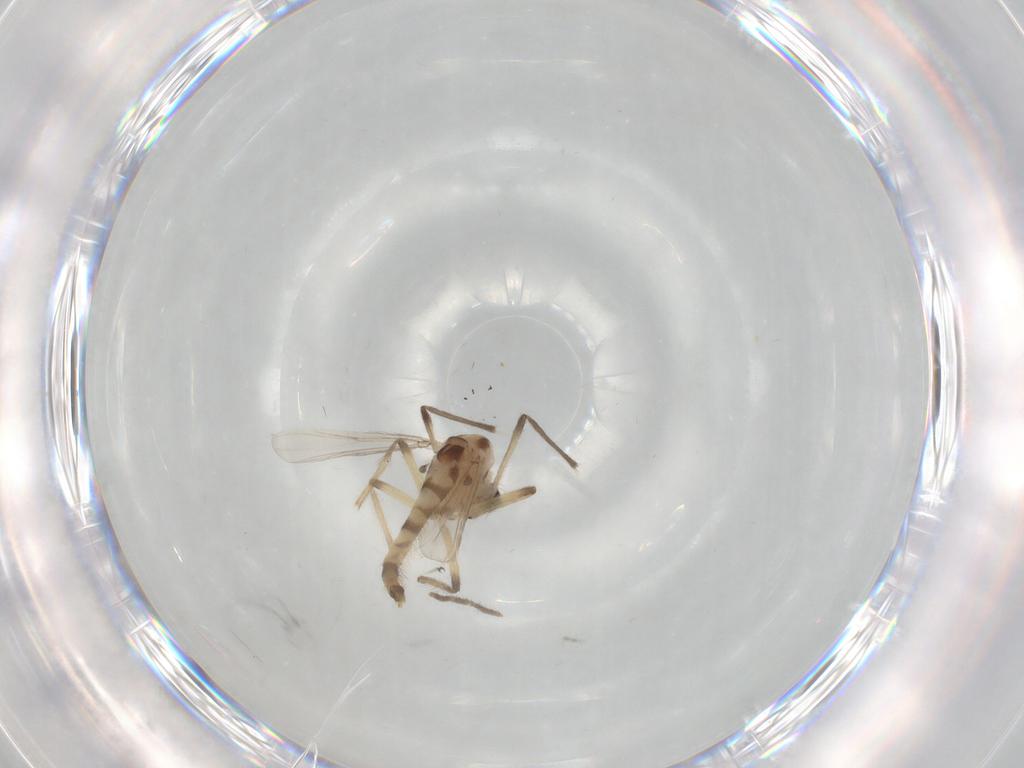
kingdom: Animalia
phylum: Arthropoda
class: Insecta
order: Diptera
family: Chironomidae
